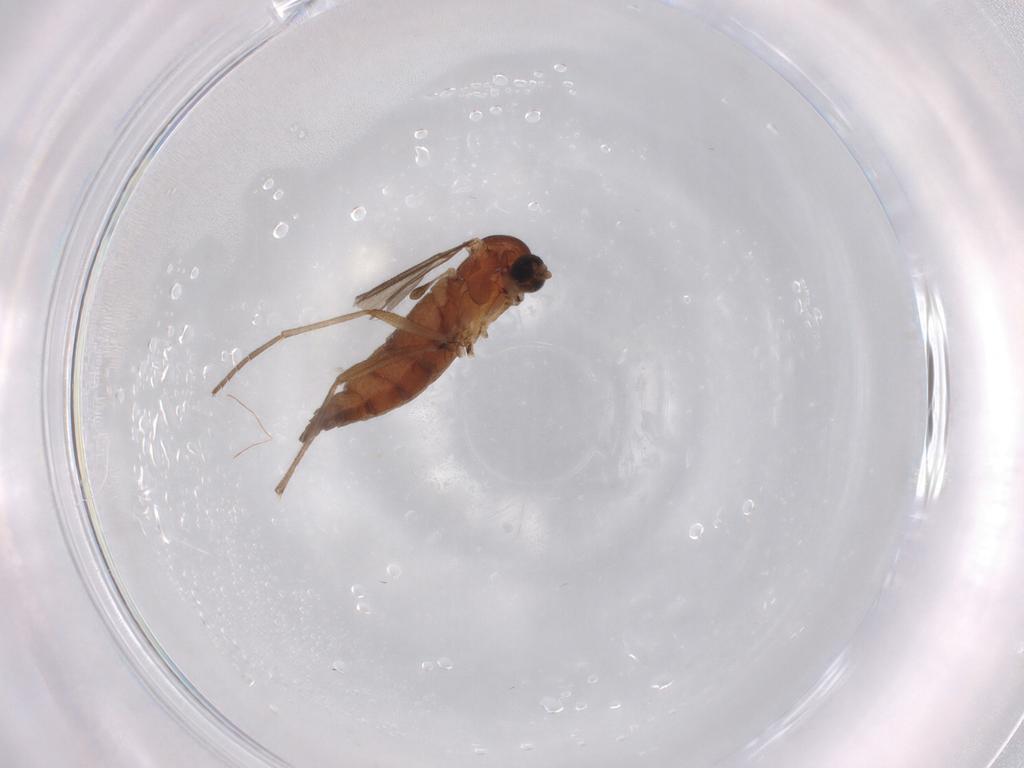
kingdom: Animalia
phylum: Arthropoda
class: Insecta
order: Diptera
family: Sciaridae
